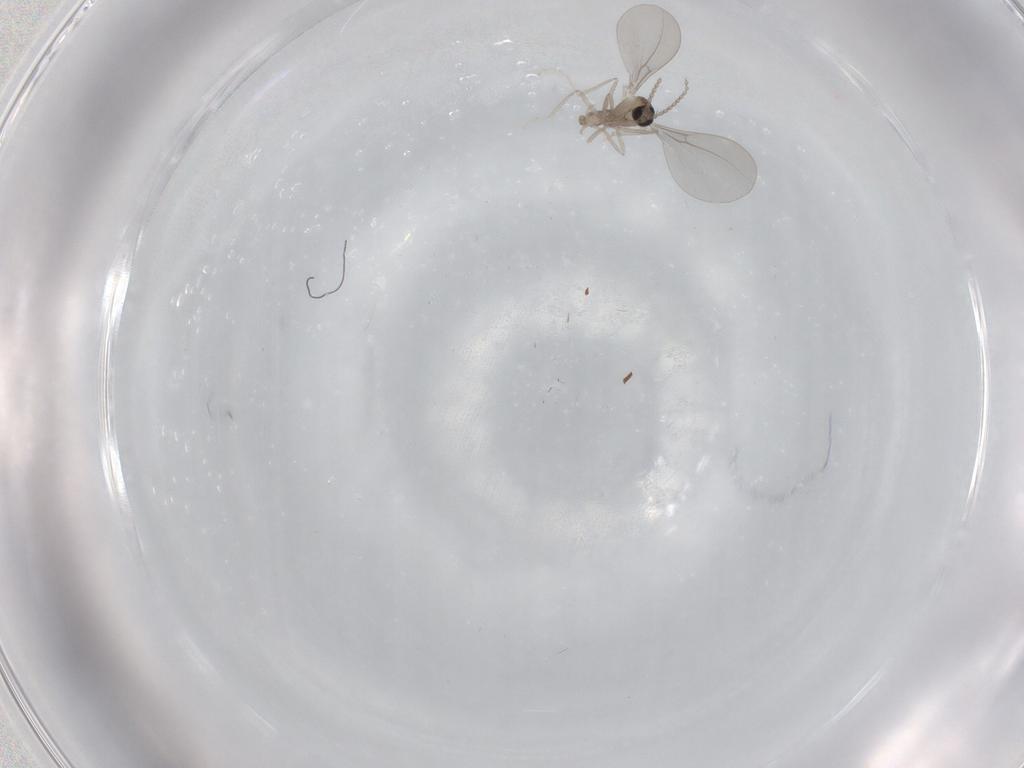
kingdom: Animalia
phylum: Arthropoda
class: Insecta
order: Diptera
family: Cecidomyiidae
